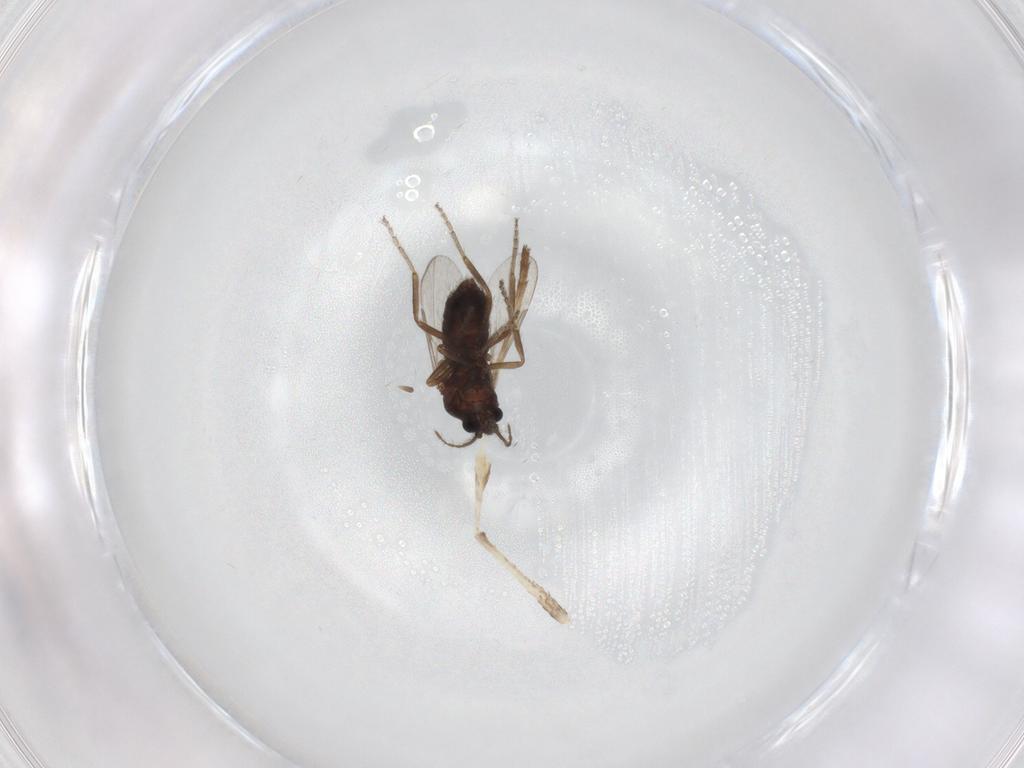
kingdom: Animalia
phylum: Arthropoda
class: Insecta
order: Diptera
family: Agromyzidae
